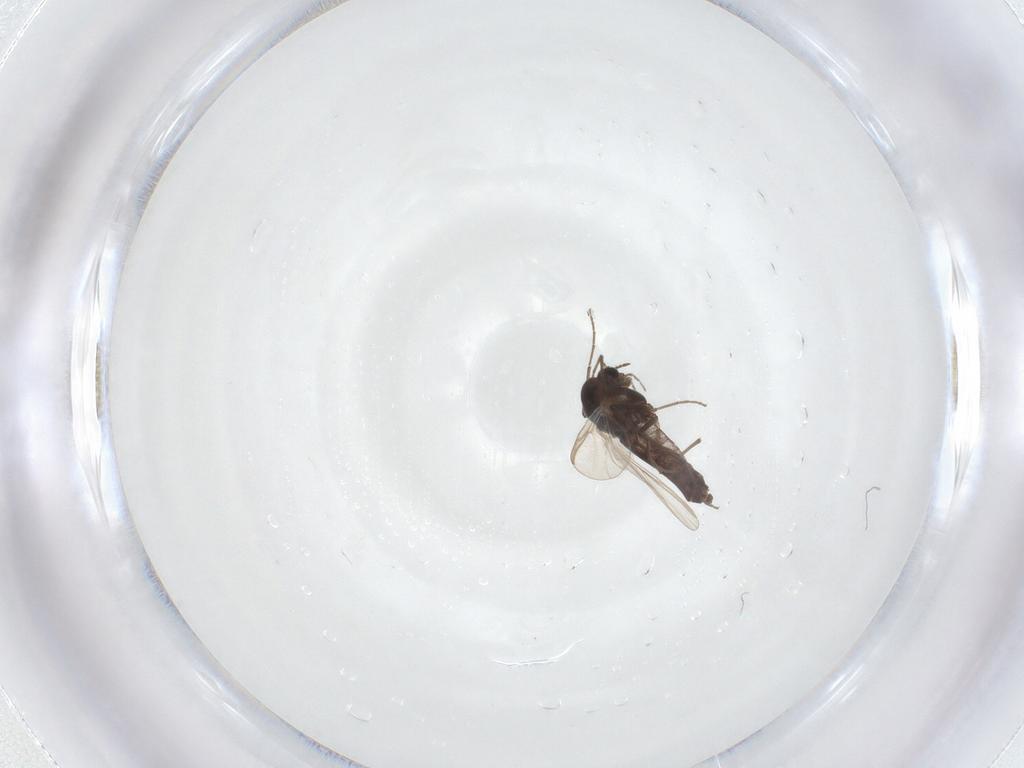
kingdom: Animalia
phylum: Arthropoda
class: Insecta
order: Diptera
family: Chironomidae
